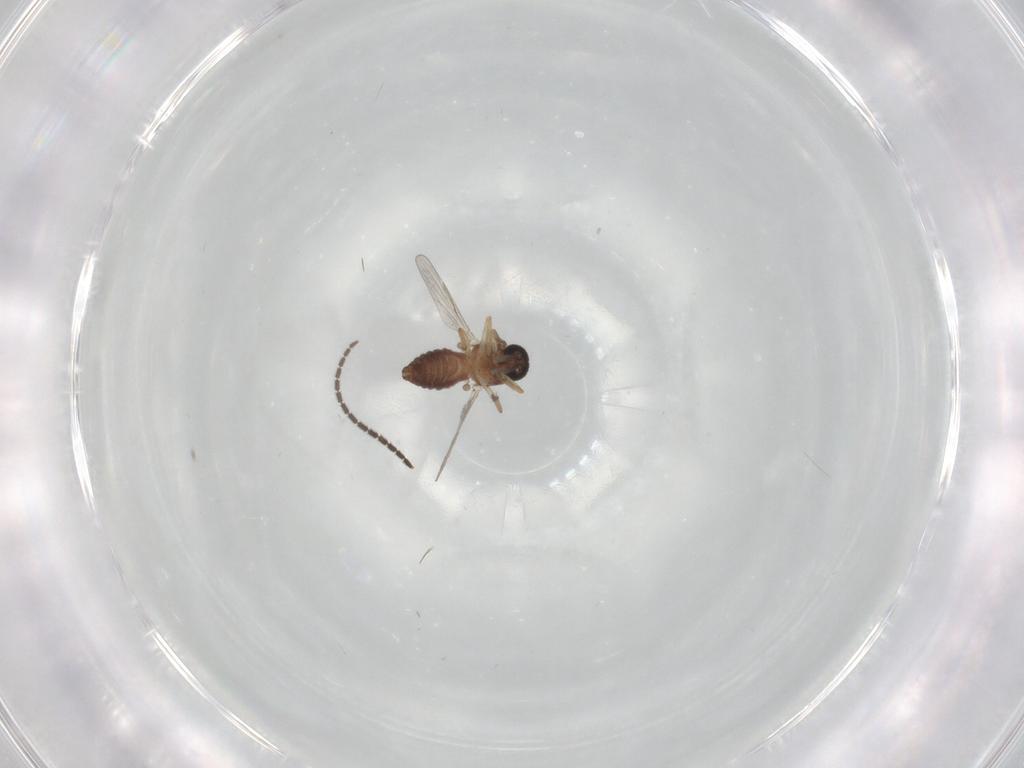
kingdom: Animalia
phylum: Arthropoda
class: Insecta
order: Diptera
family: Ceratopogonidae
